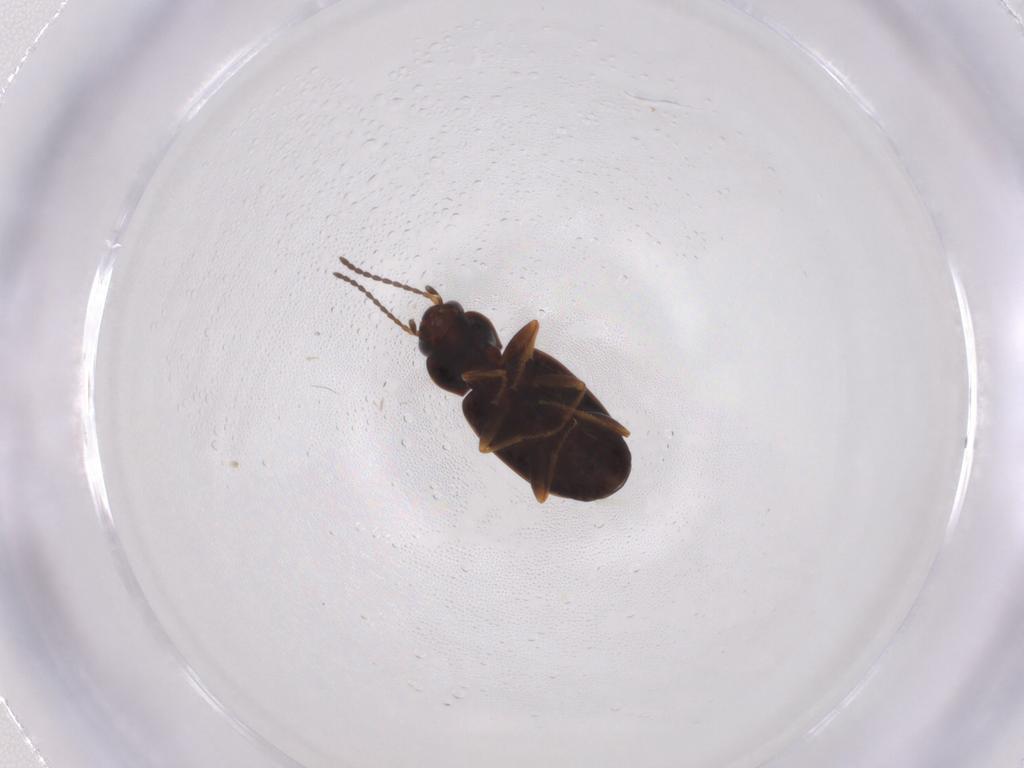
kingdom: Animalia
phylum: Arthropoda
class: Insecta
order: Coleoptera
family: Carabidae
